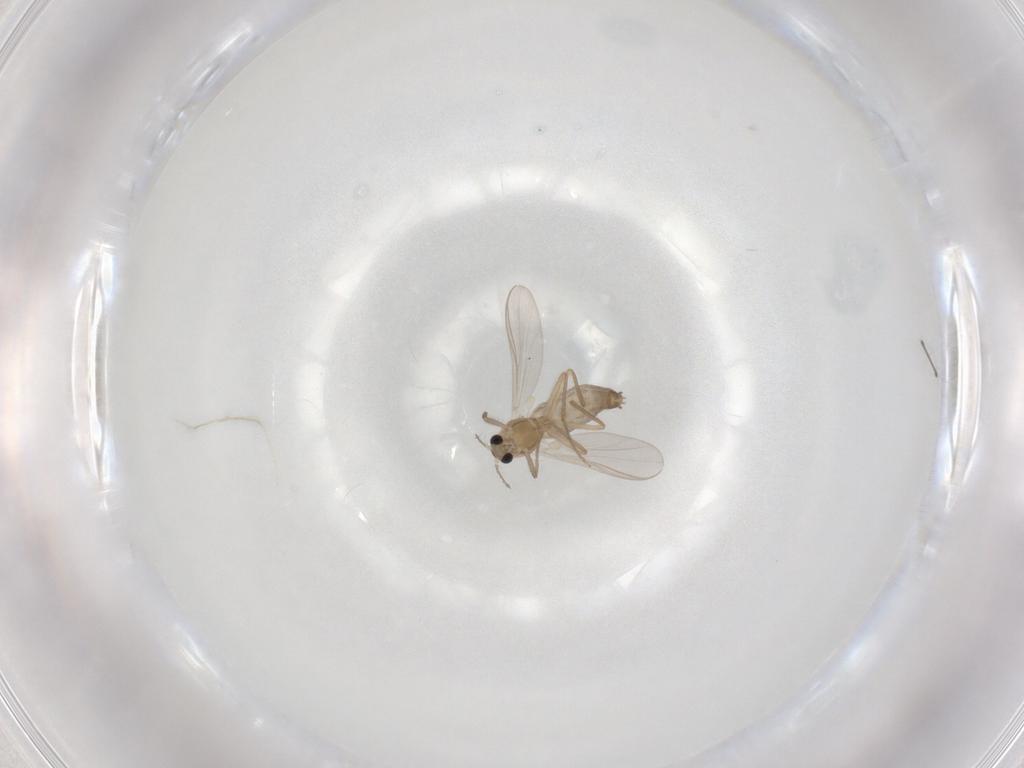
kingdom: Animalia
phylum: Arthropoda
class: Insecta
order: Diptera
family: Chironomidae
